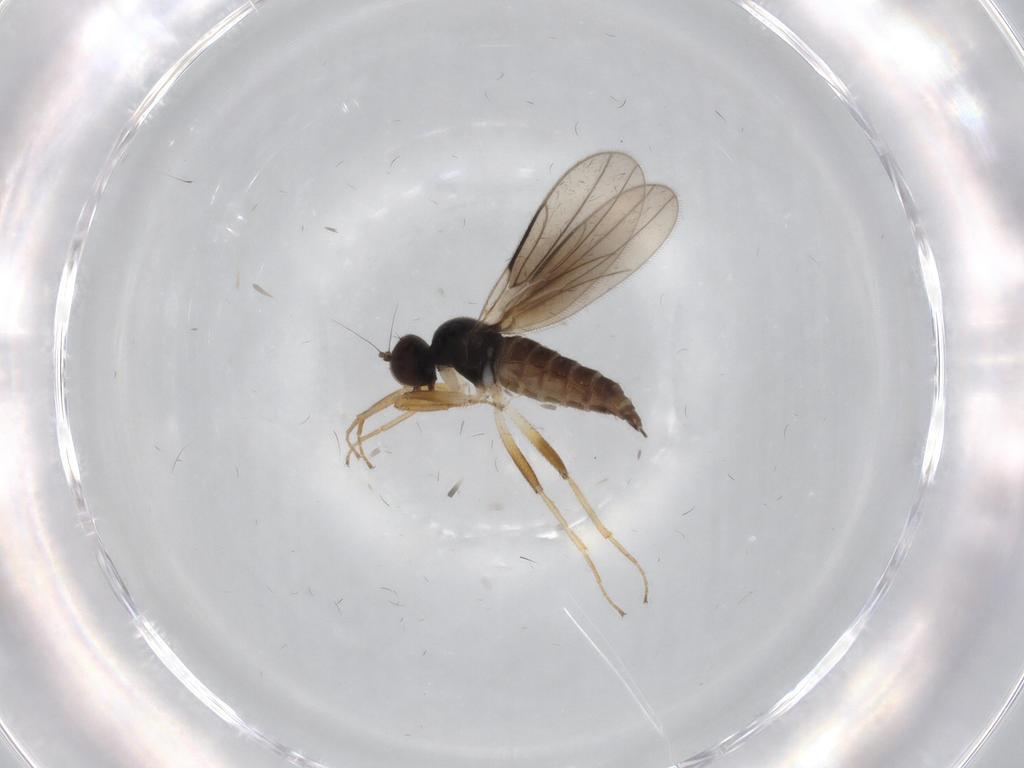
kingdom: Animalia
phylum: Arthropoda
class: Insecta
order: Diptera
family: Hybotidae
